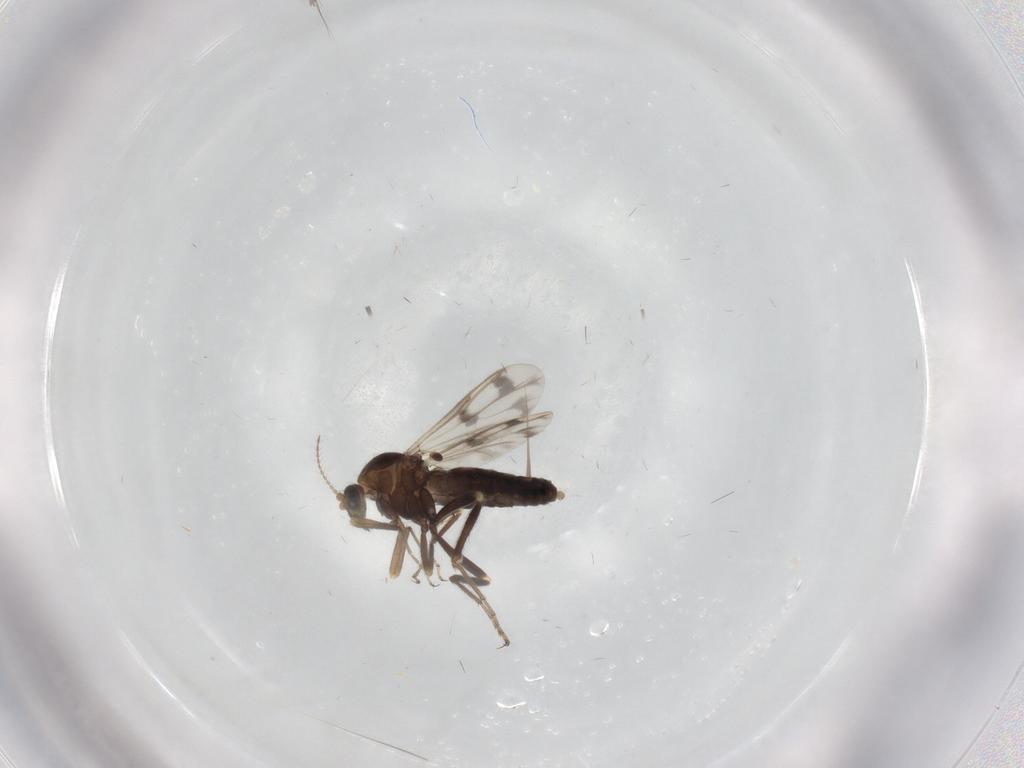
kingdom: Animalia
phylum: Arthropoda
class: Insecta
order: Diptera
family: Ceratopogonidae
